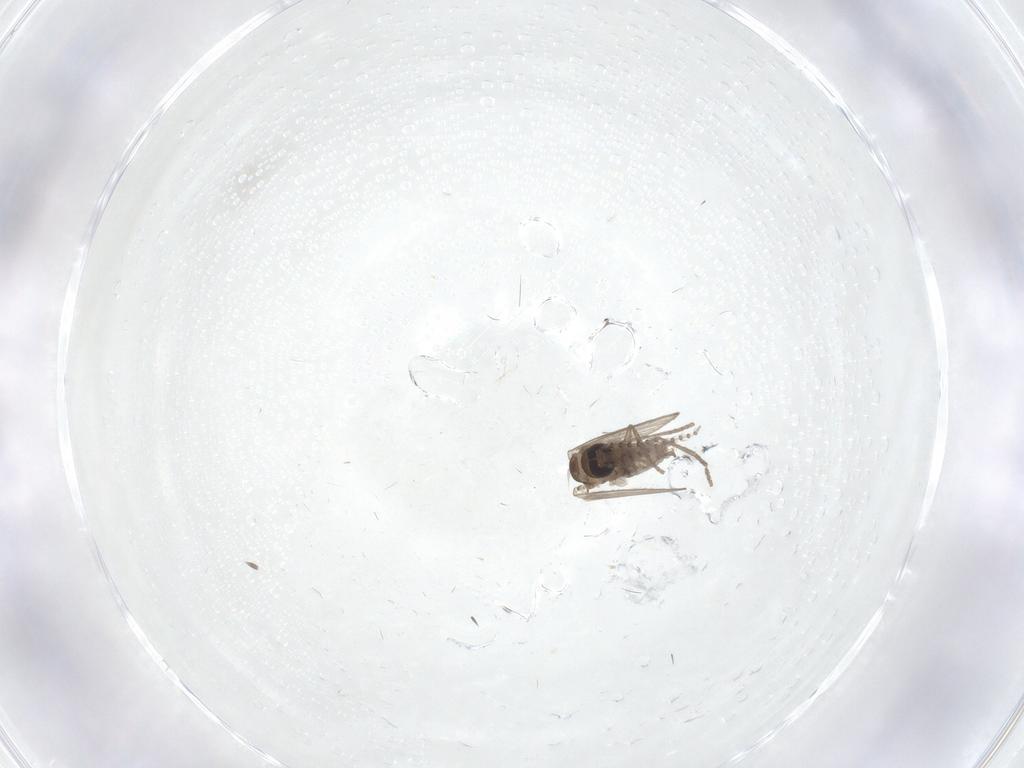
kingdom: Animalia
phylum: Arthropoda
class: Insecta
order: Diptera
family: Psychodidae
